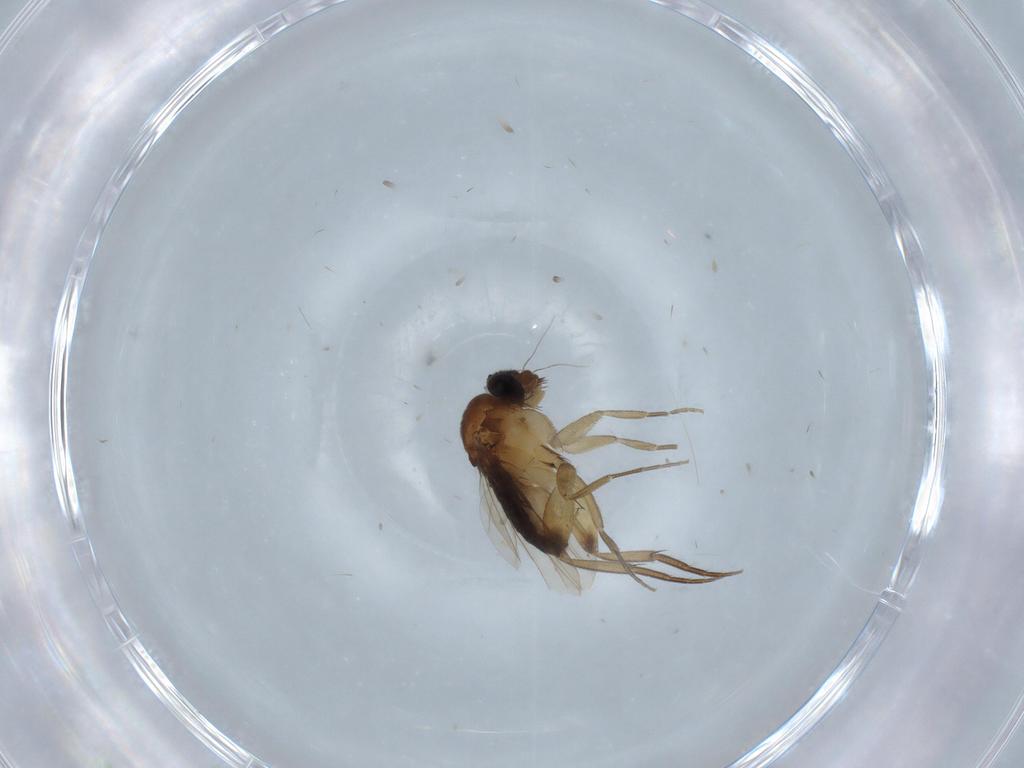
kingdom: Animalia
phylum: Arthropoda
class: Insecta
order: Diptera
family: Phoridae
